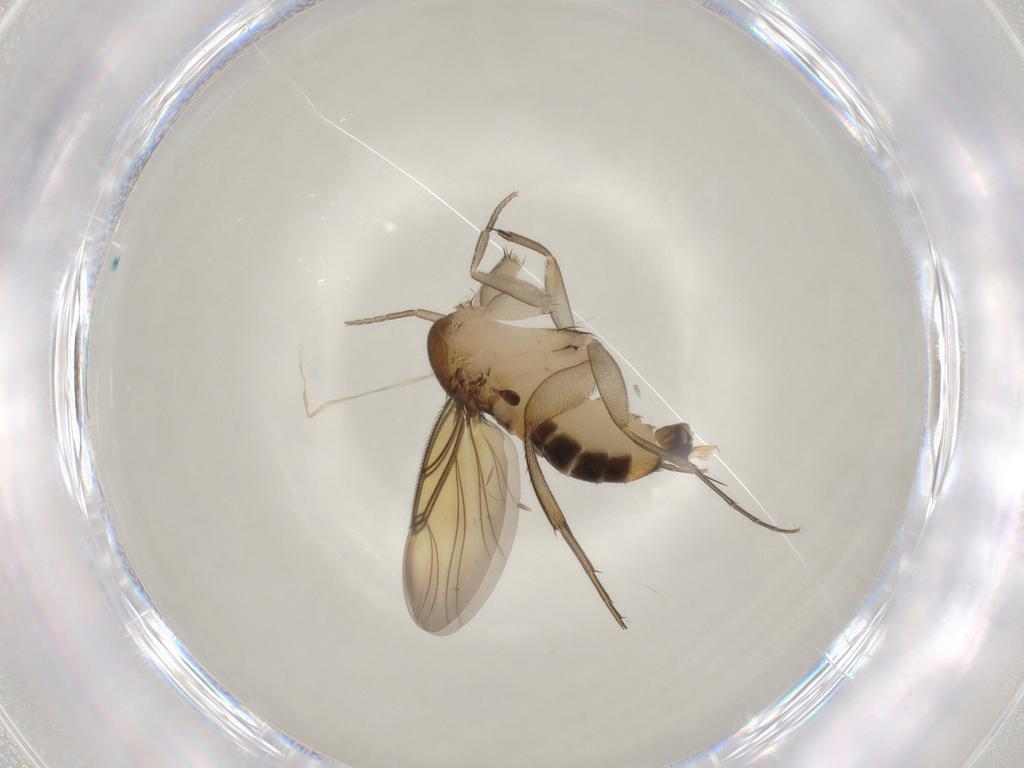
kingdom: Animalia
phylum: Arthropoda
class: Insecta
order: Diptera
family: Ceratopogonidae
